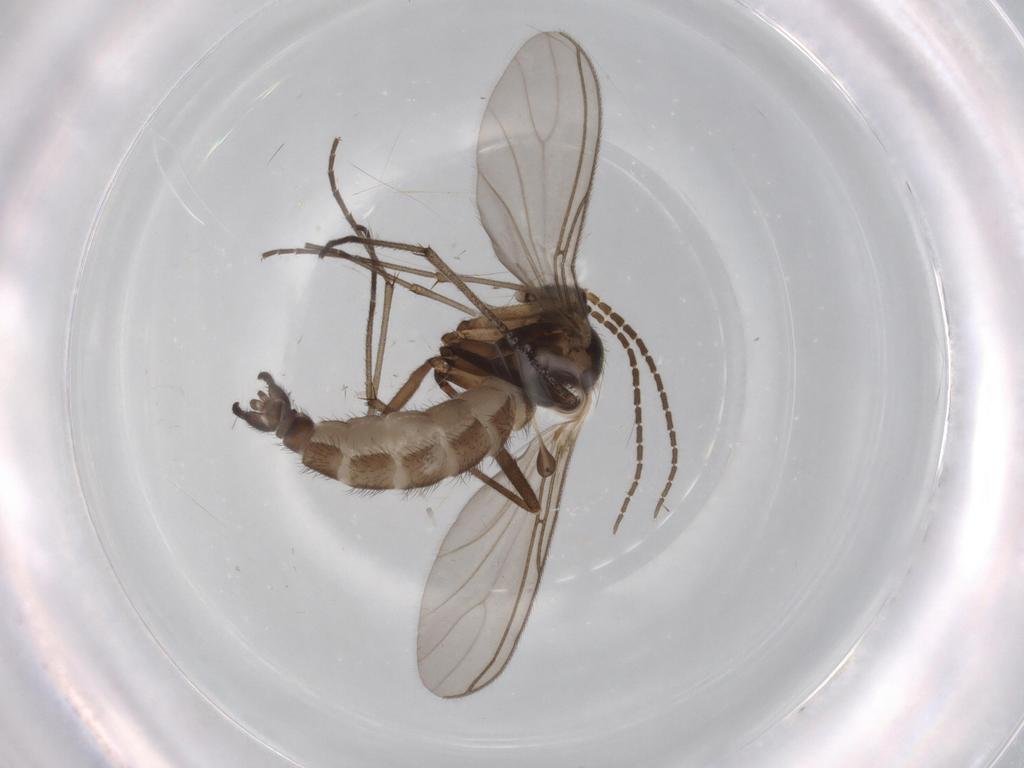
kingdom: Animalia
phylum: Arthropoda
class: Insecta
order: Diptera
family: Sciaridae
